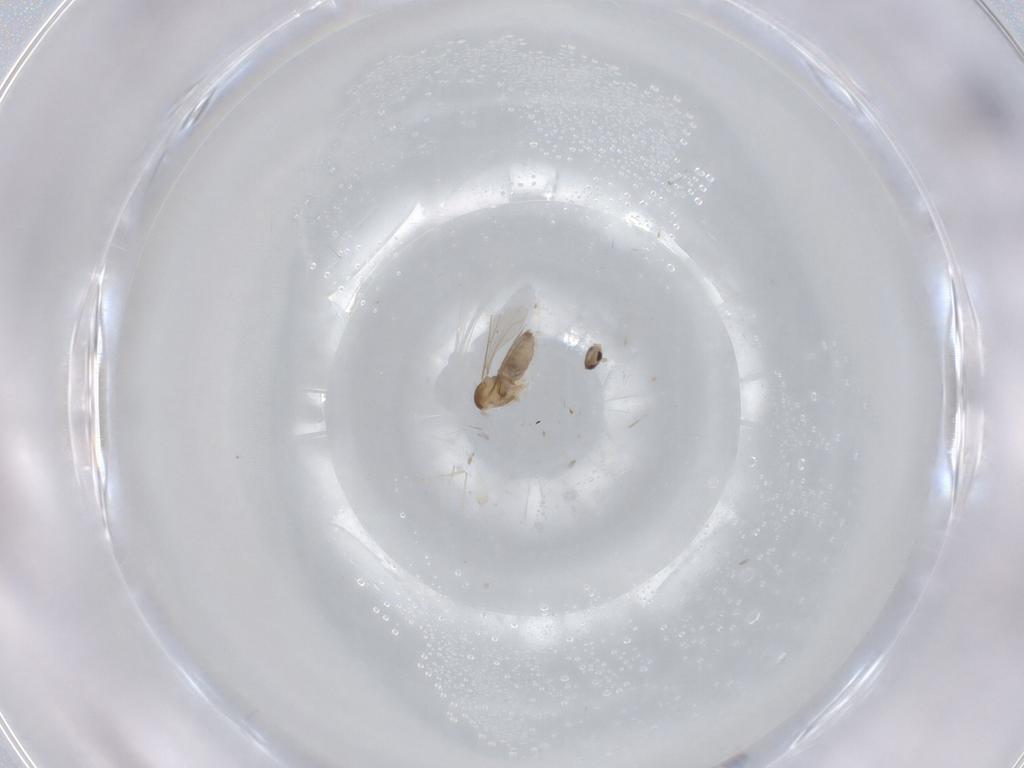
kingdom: Animalia
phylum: Arthropoda
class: Insecta
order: Diptera
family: Cecidomyiidae
